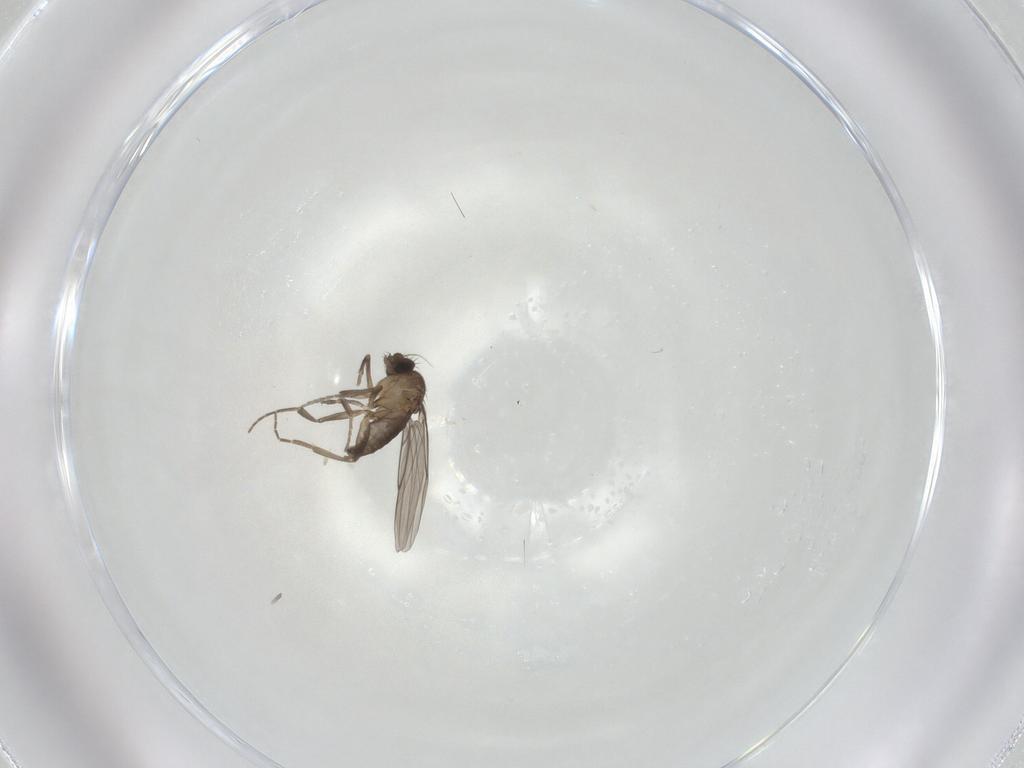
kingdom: Animalia
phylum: Arthropoda
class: Insecta
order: Diptera
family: Phoridae
